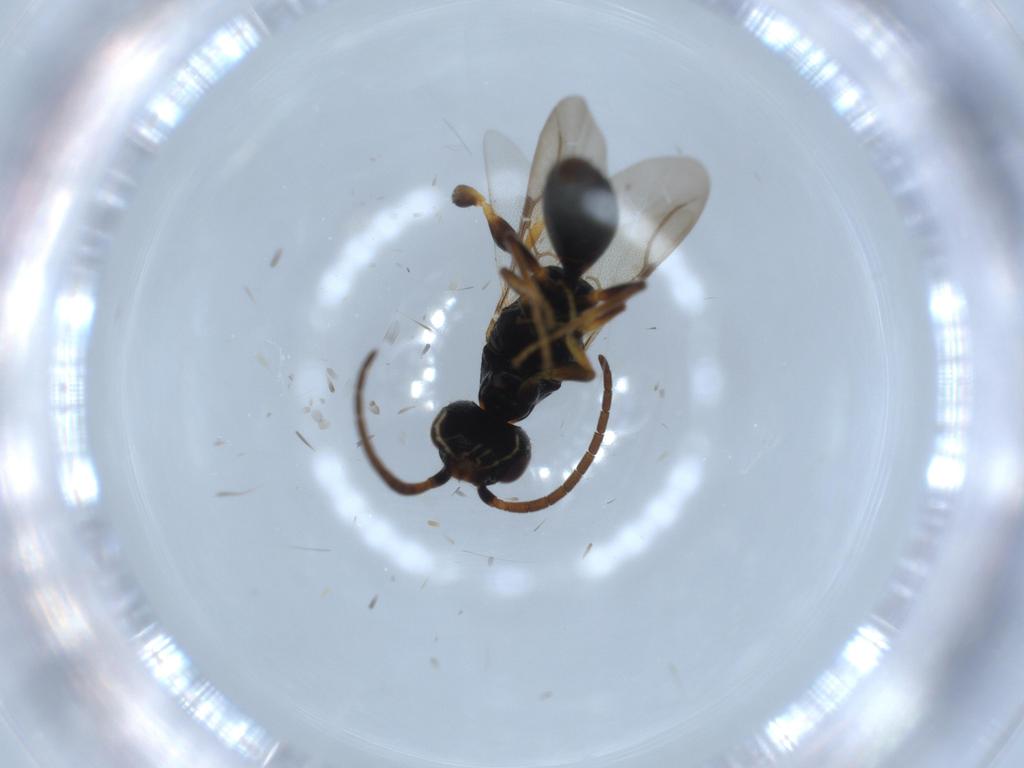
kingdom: Animalia
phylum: Arthropoda
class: Insecta
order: Hymenoptera
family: Bethylidae
